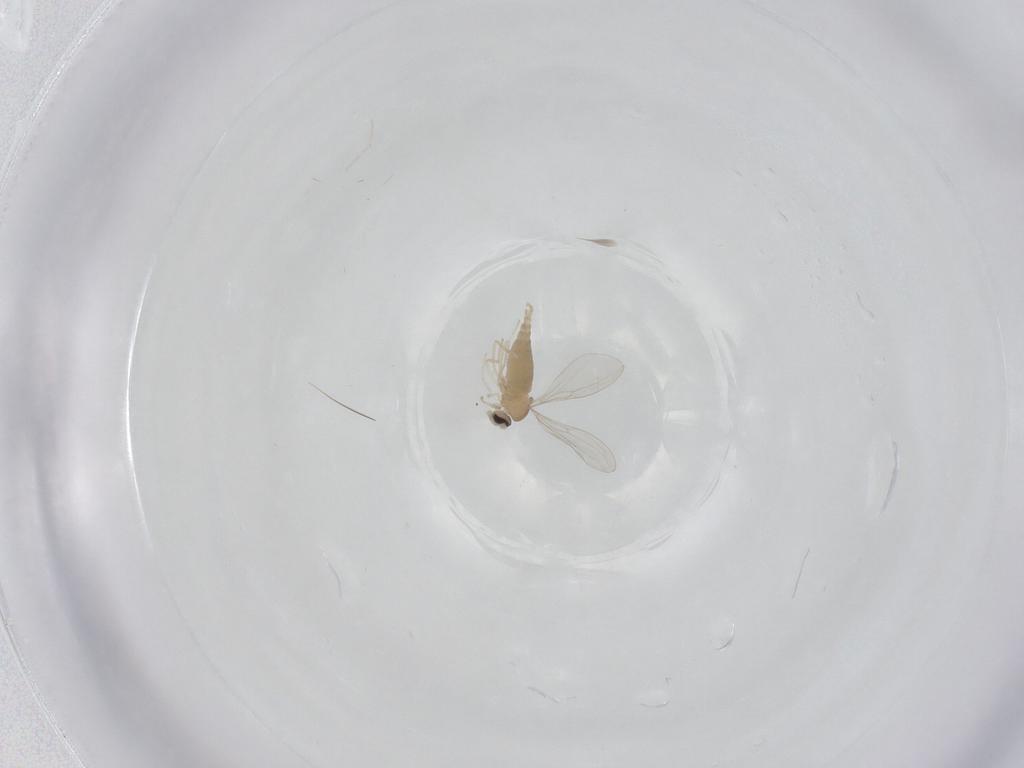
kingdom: Animalia
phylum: Arthropoda
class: Insecta
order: Diptera
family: Cecidomyiidae
